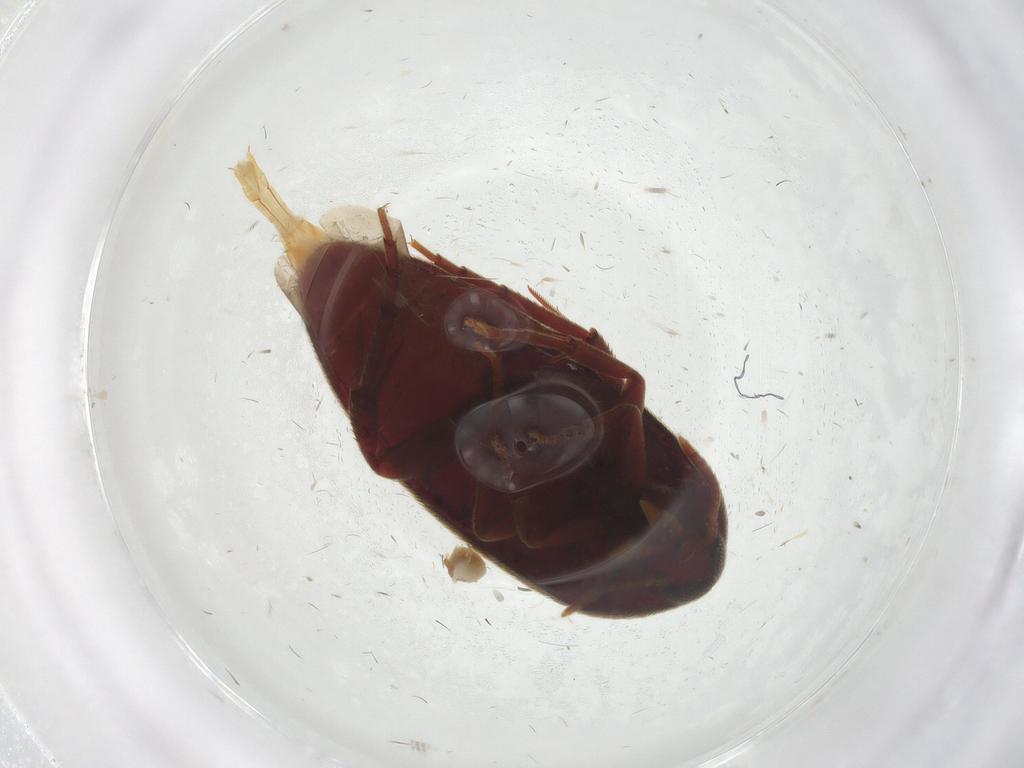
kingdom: Animalia
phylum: Arthropoda
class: Insecta
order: Coleoptera
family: Melandryidae
